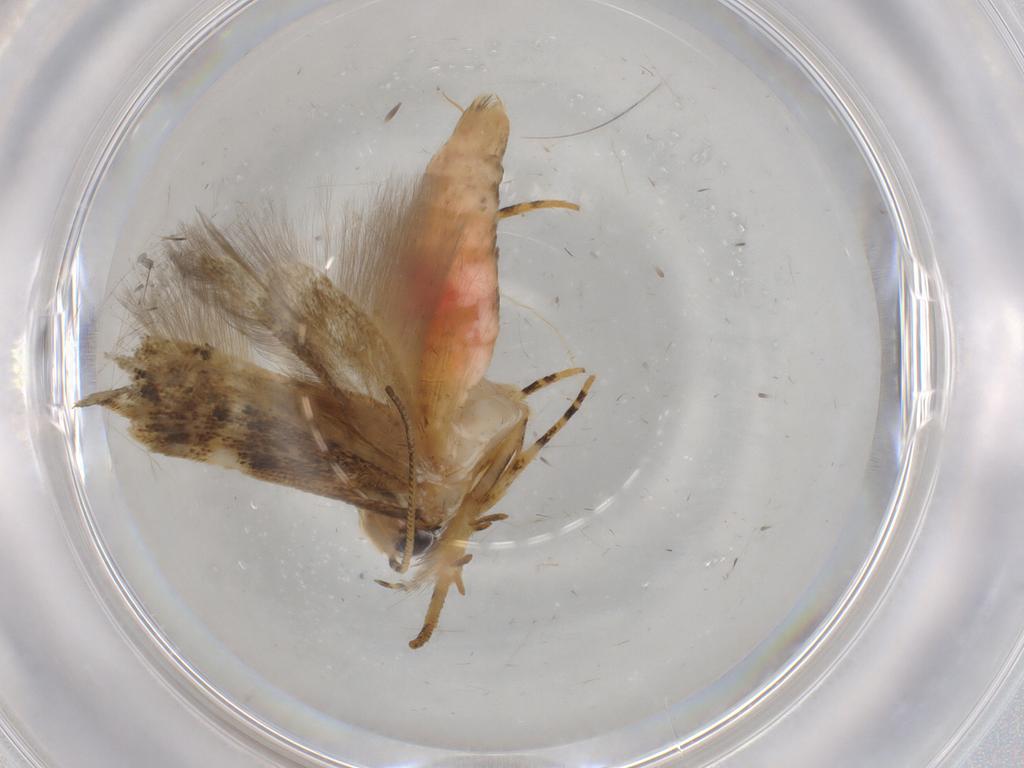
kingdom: Animalia
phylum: Arthropoda
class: Insecta
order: Lepidoptera
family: Gelechiidae
